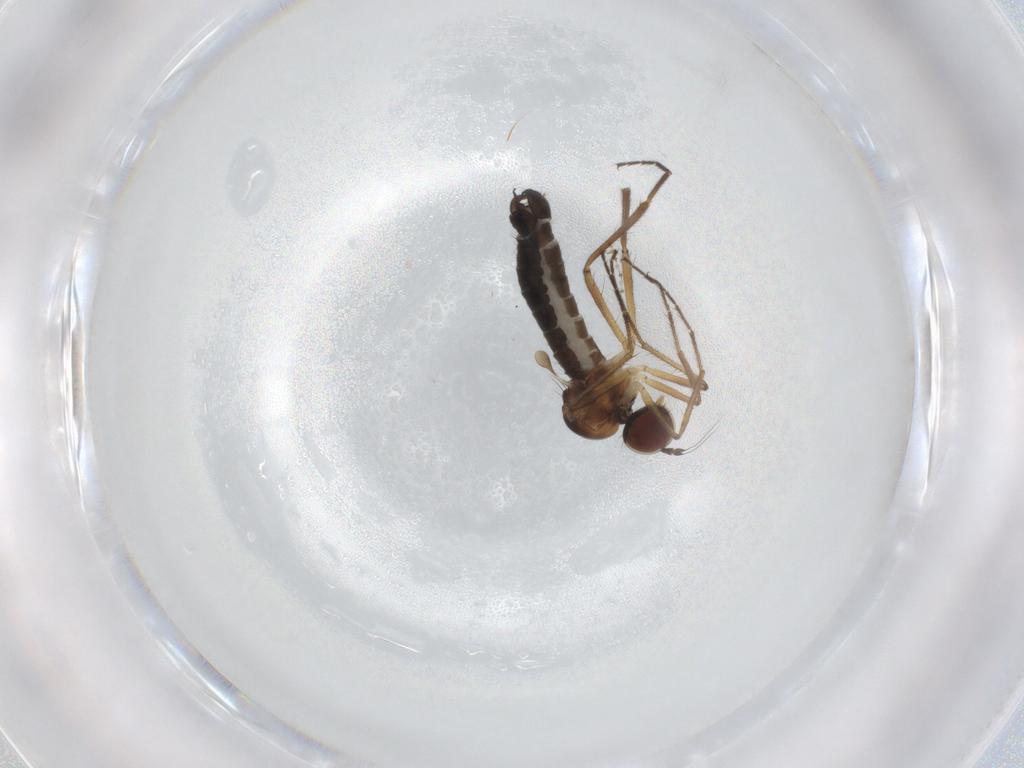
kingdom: Animalia
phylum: Arthropoda
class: Insecta
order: Diptera
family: Hybotidae
